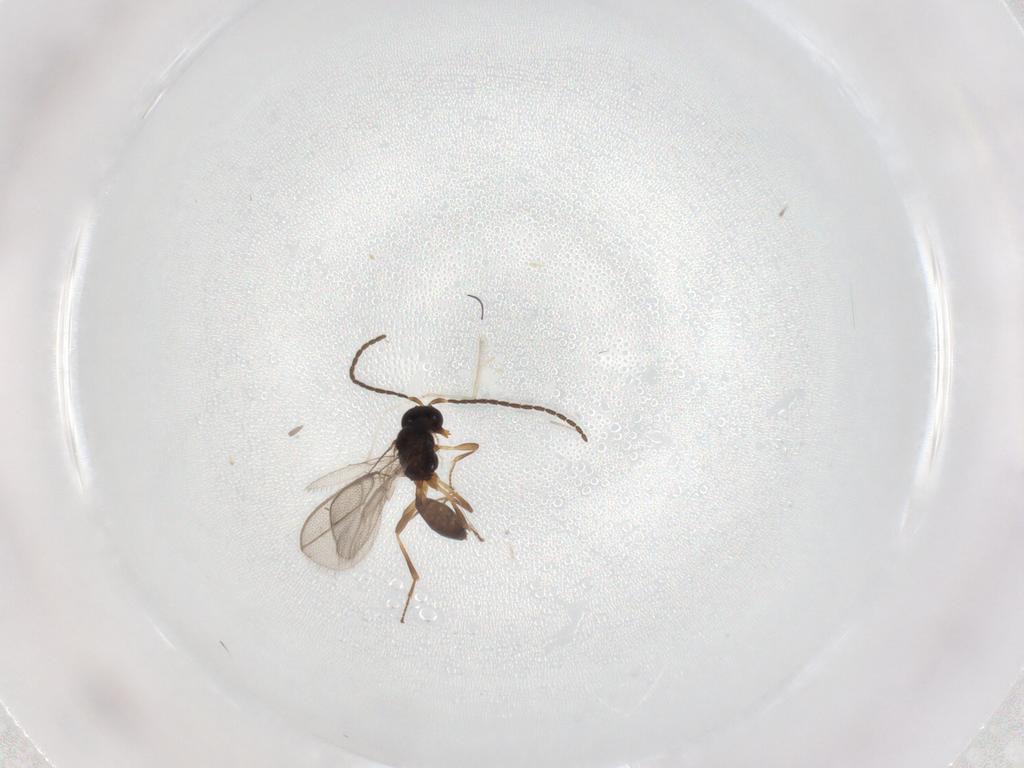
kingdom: Animalia
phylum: Arthropoda
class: Insecta
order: Hymenoptera
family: Braconidae
